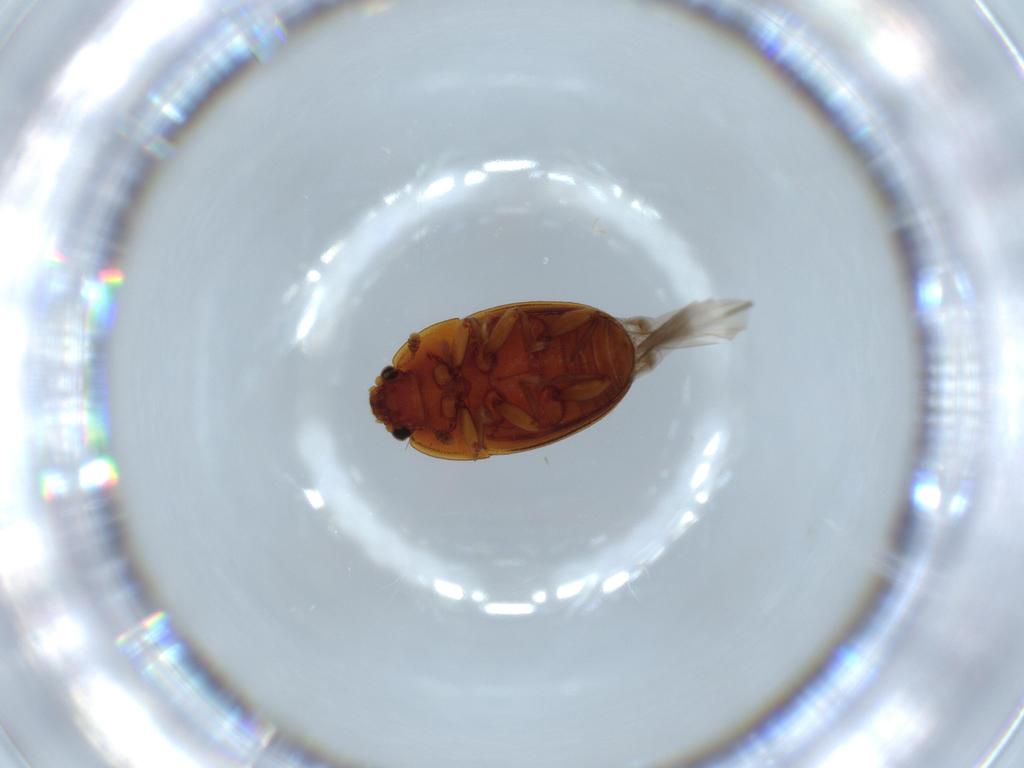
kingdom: Animalia
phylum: Arthropoda
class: Insecta
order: Coleoptera
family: Nitidulidae
